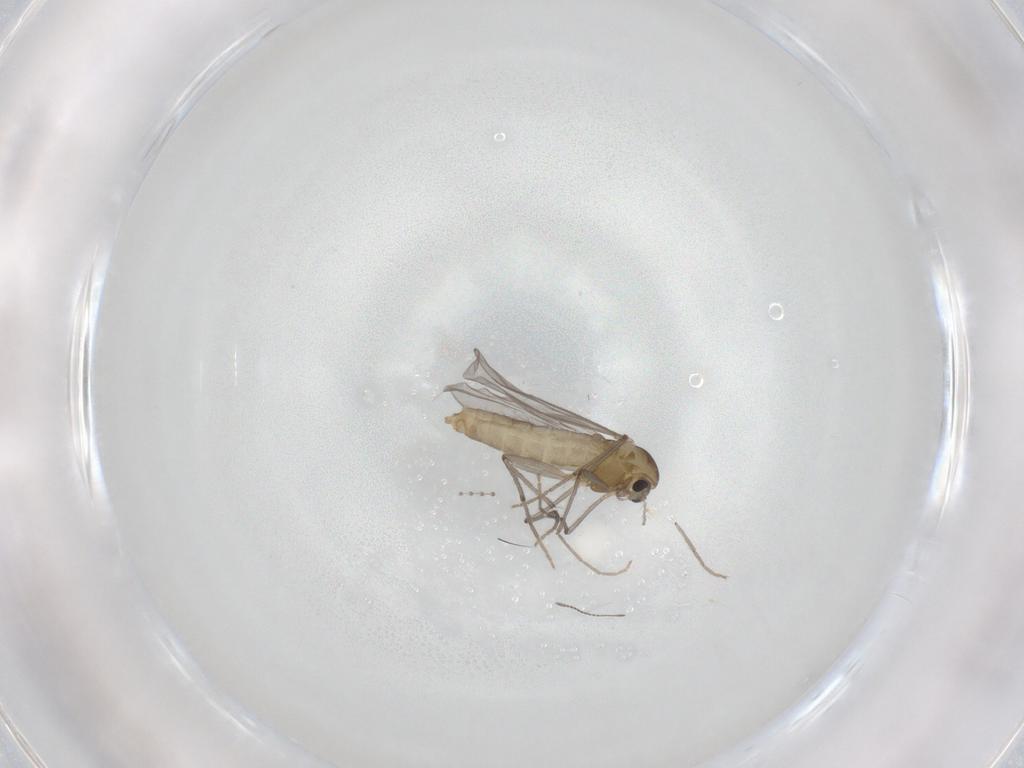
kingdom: Animalia
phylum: Arthropoda
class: Insecta
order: Diptera
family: Chironomidae
